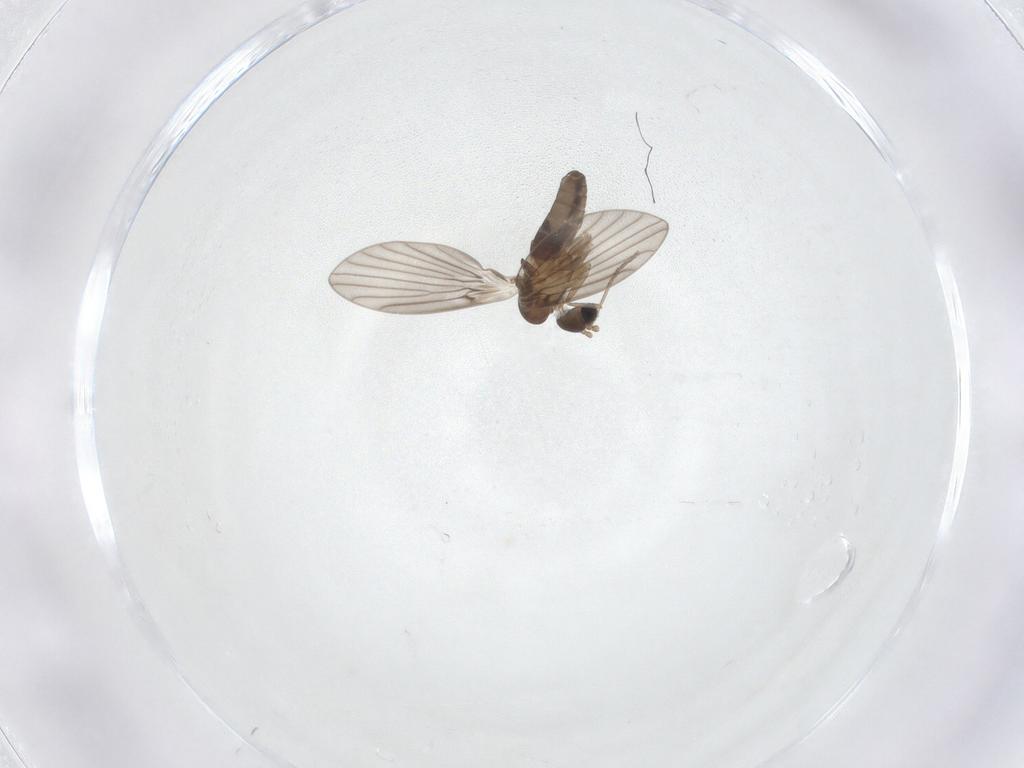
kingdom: Animalia
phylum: Arthropoda
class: Insecta
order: Diptera
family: Psychodidae
